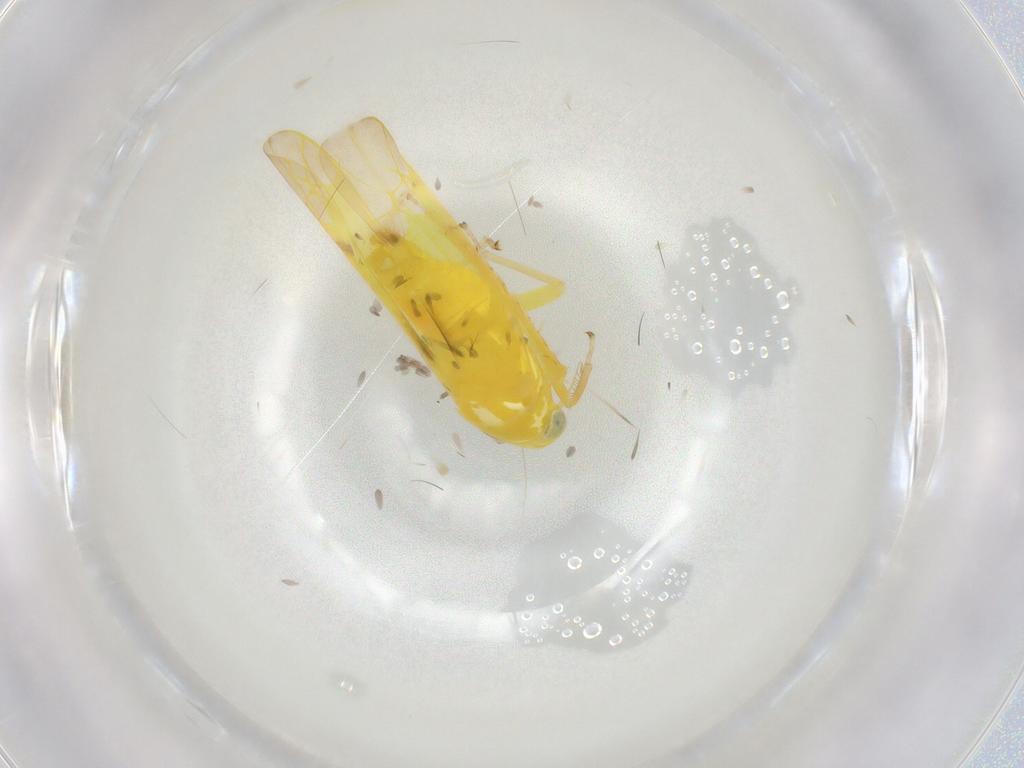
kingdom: Animalia
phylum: Arthropoda
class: Insecta
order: Hemiptera
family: Cicadellidae
